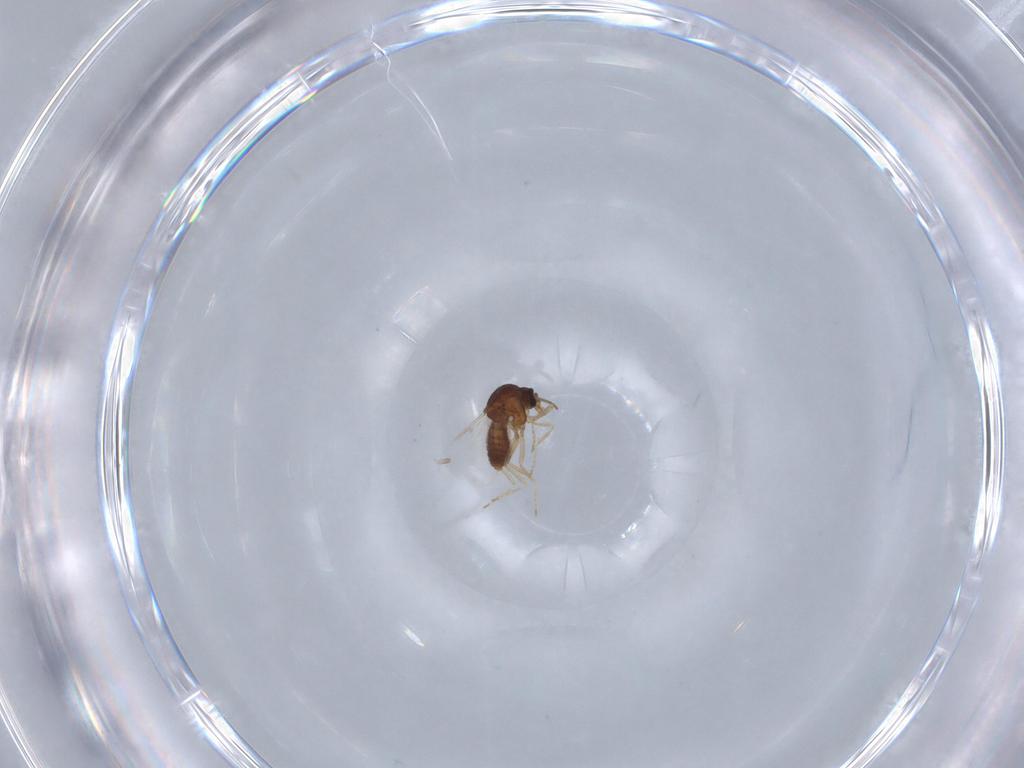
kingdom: Animalia
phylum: Arthropoda
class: Insecta
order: Diptera
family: Ceratopogonidae
